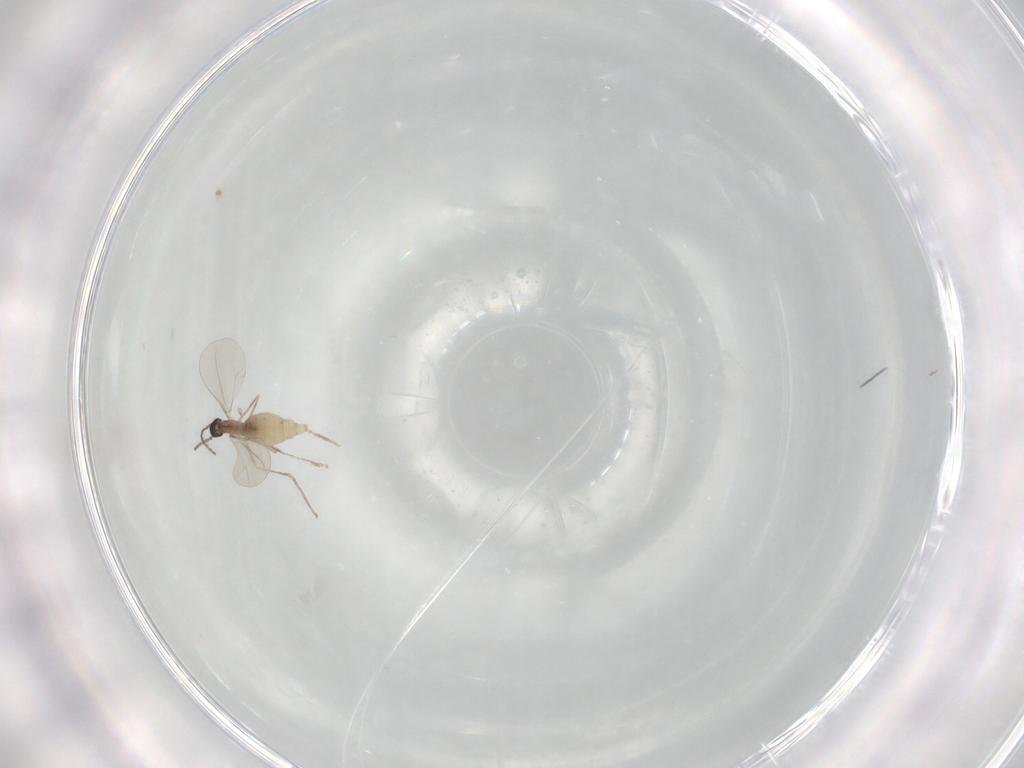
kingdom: Animalia
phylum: Arthropoda
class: Insecta
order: Diptera
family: Cecidomyiidae
